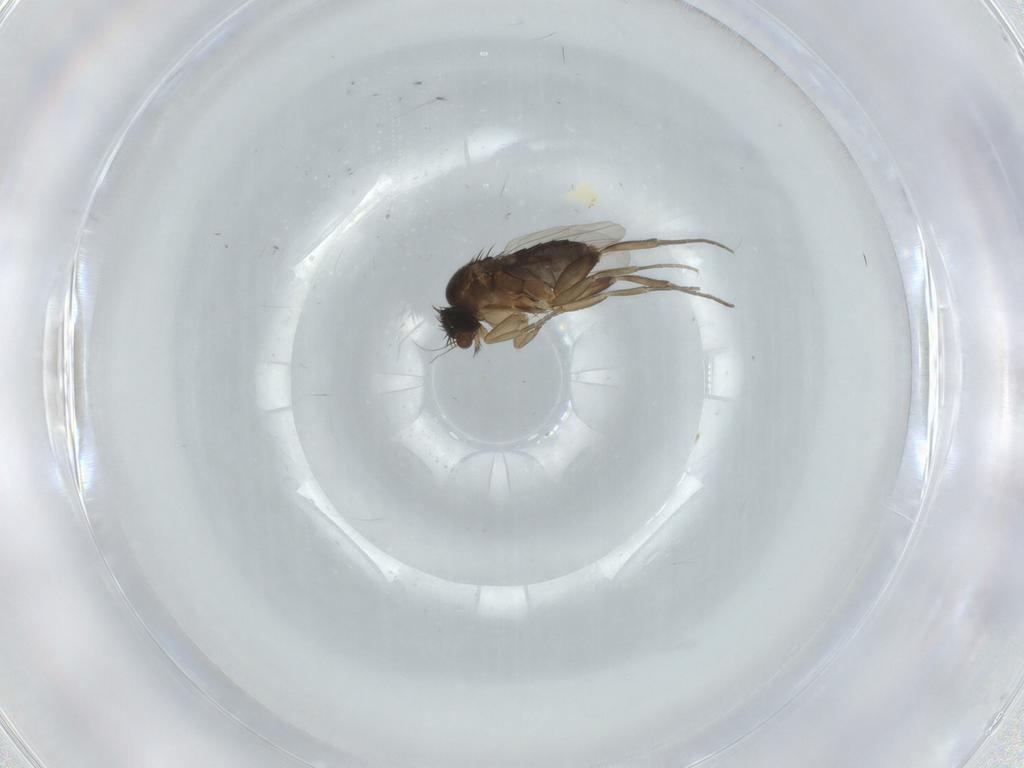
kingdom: Animalia
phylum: Arthropoda
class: Insecta
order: Diptera
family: Phoridae
